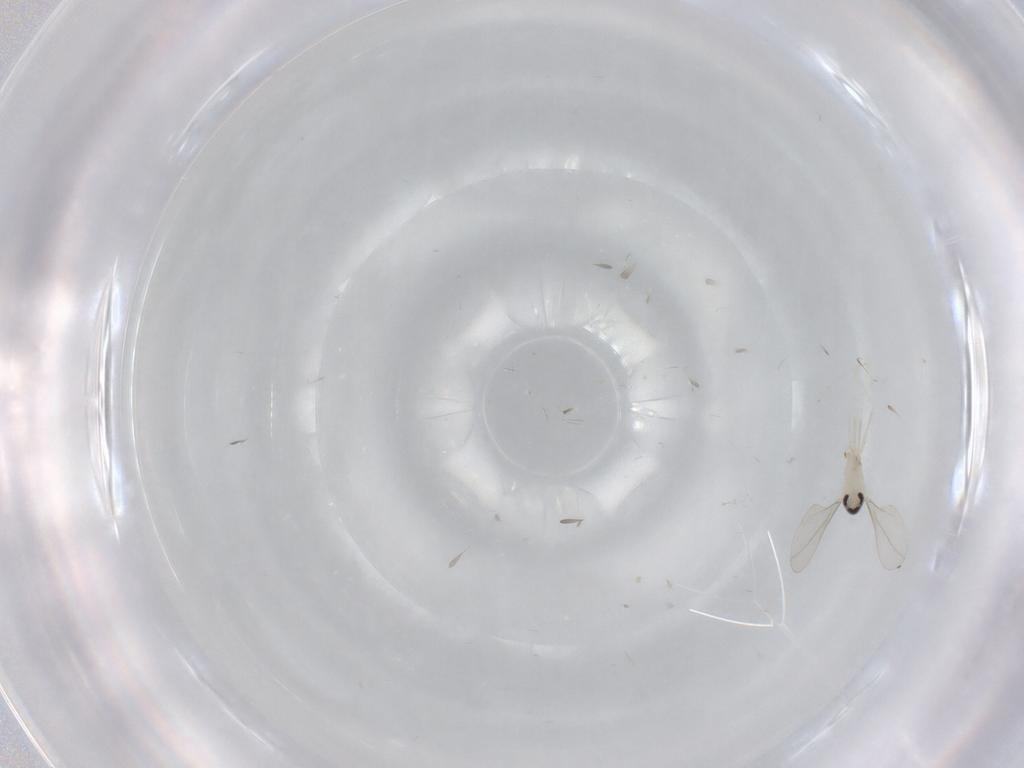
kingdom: Animalia
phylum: Arthropoda
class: Insecta
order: Diptera
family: Cecidomyiidae
